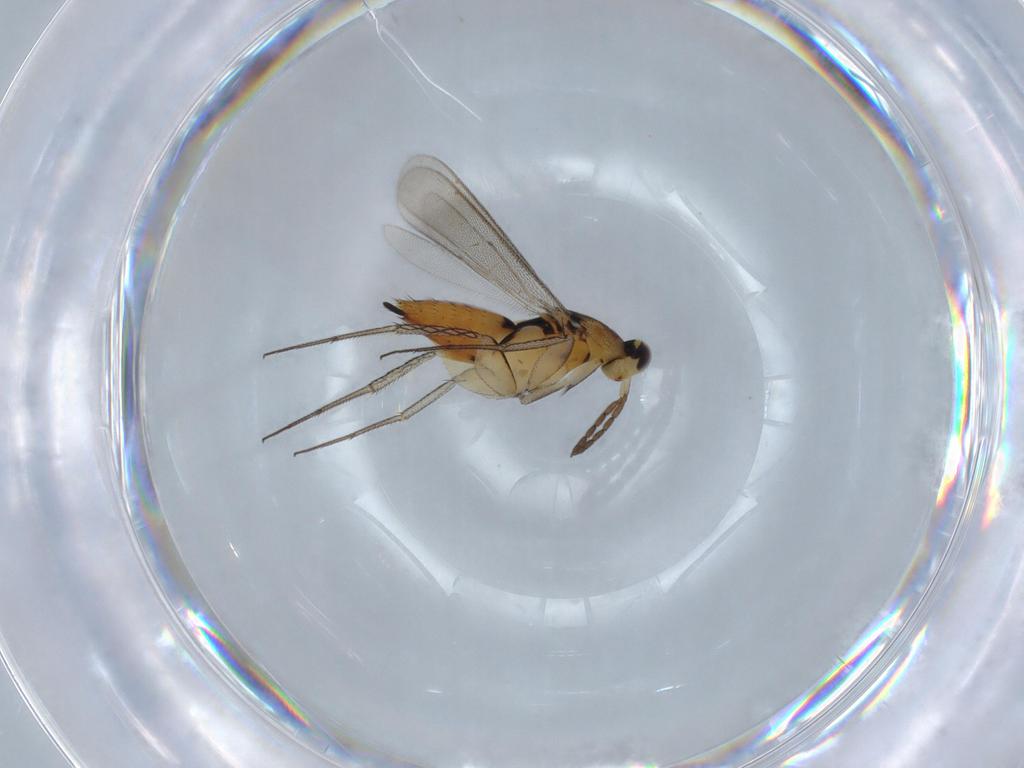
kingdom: Animalia
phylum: Arthropoda
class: Insecta
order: Hymenoptera
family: Eulophidae
